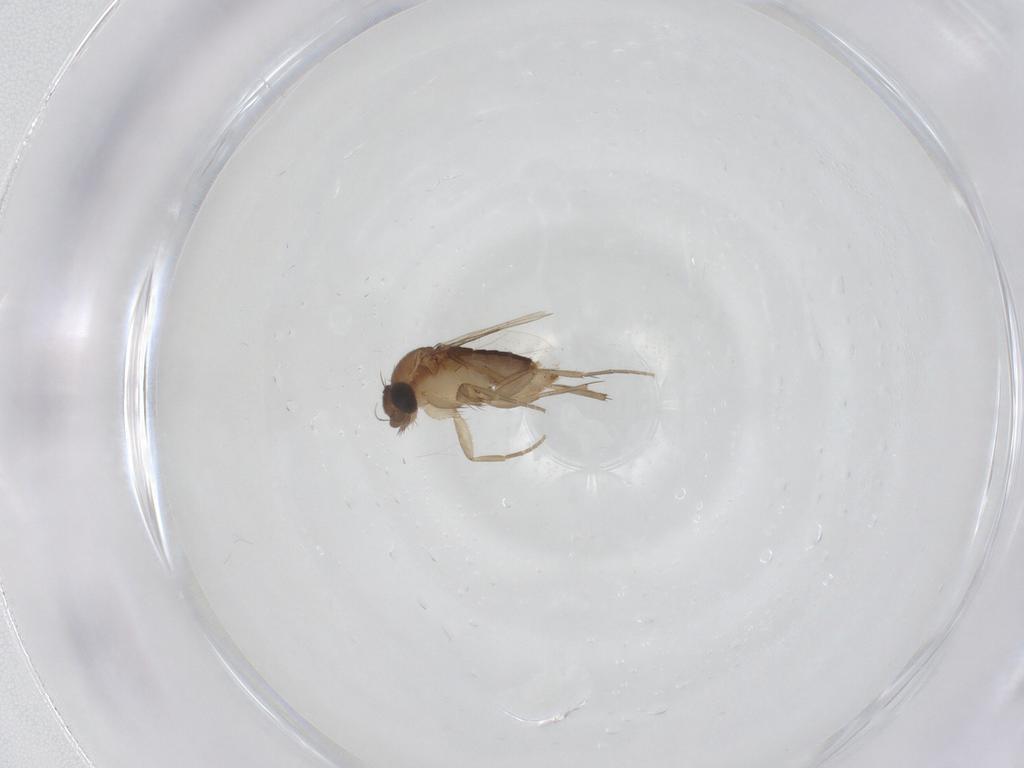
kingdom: Animalia
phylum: Arthropoda
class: Insecta
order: Diptera
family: Phoridae
